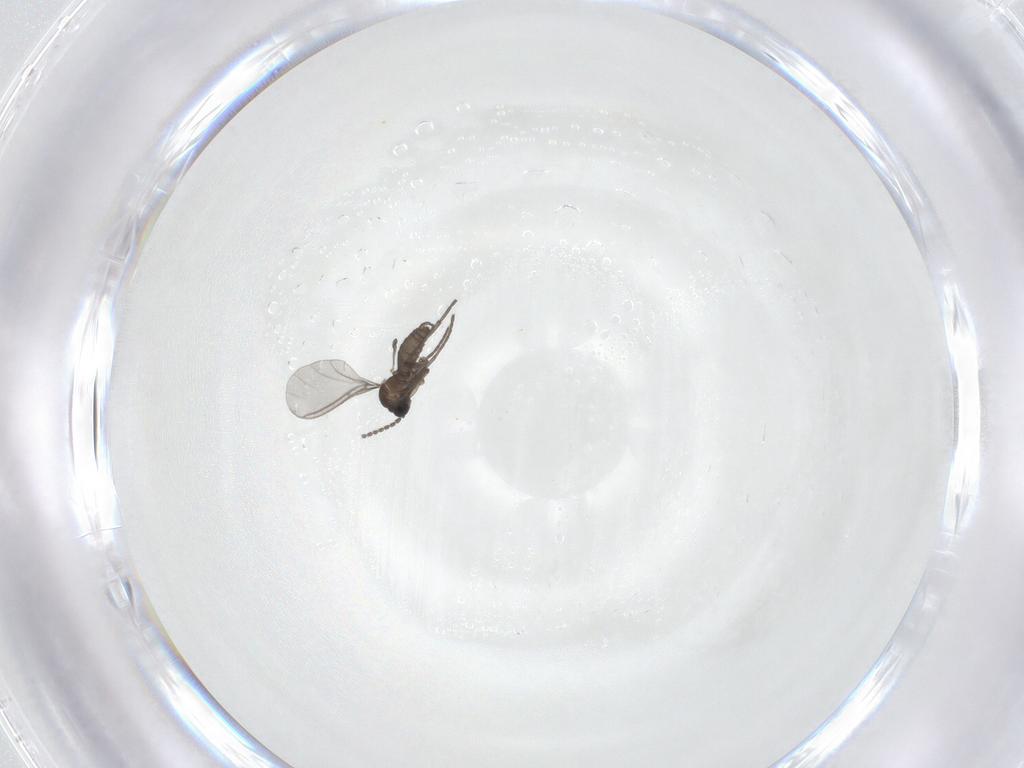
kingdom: Animalia
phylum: Arthropoda
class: Insecta
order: Diptera
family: Sciaridae
